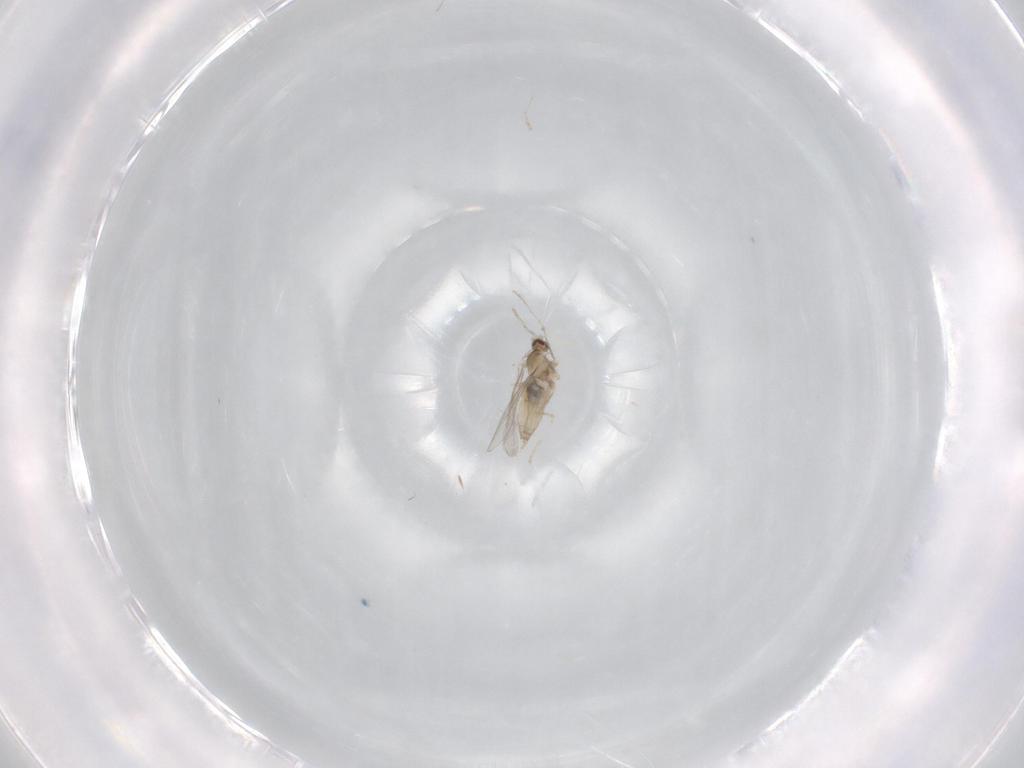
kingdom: Animalia
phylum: Arthropoda
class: Insecta
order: Diptera
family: Cecidomyiidae
